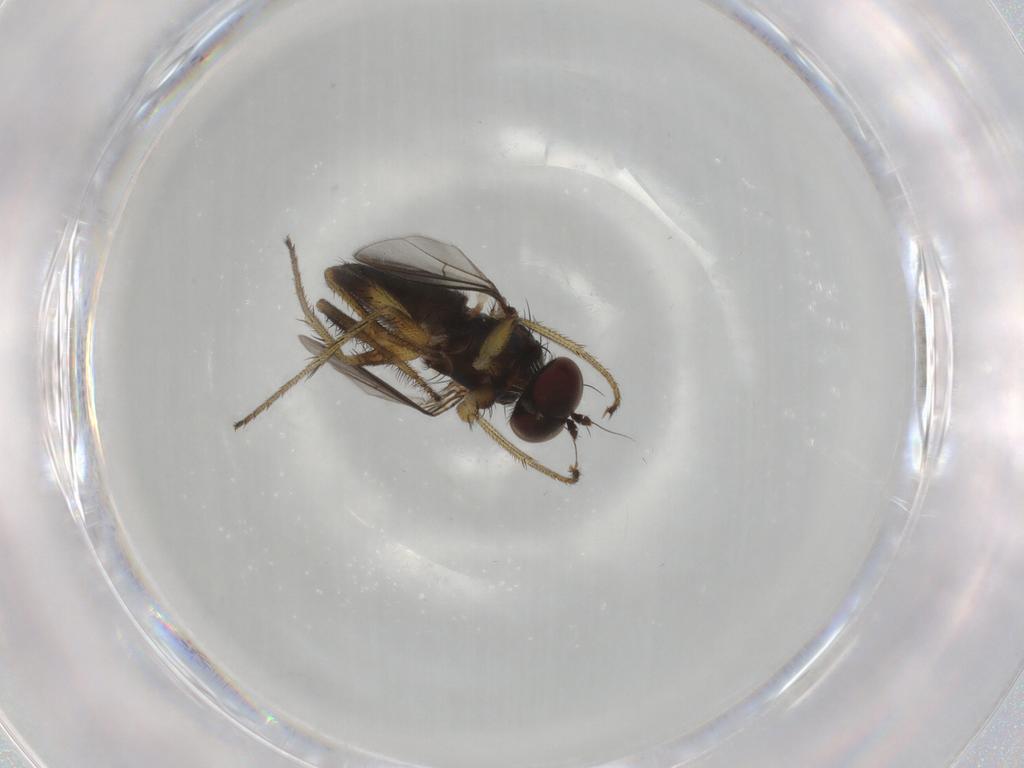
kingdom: Animalia
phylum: Arthropoda
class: Insecta
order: Diptera
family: Dolichopodidae
